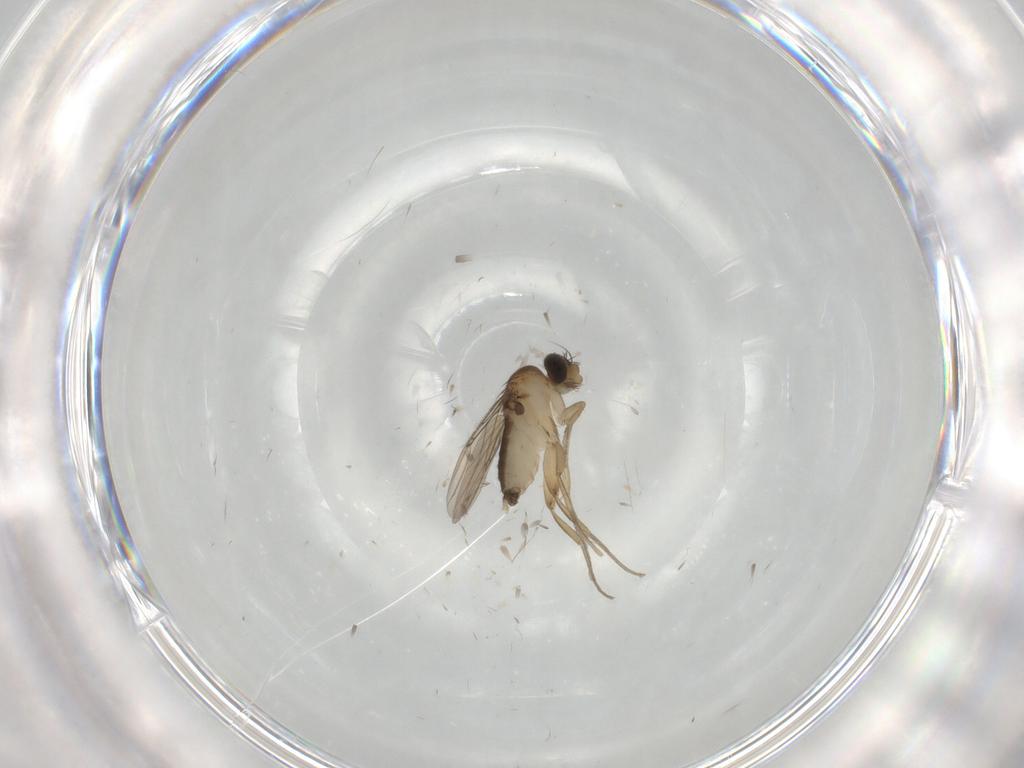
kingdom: Animalia
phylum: Arthropoda
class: Insecta
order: Diptera
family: Phoridae
